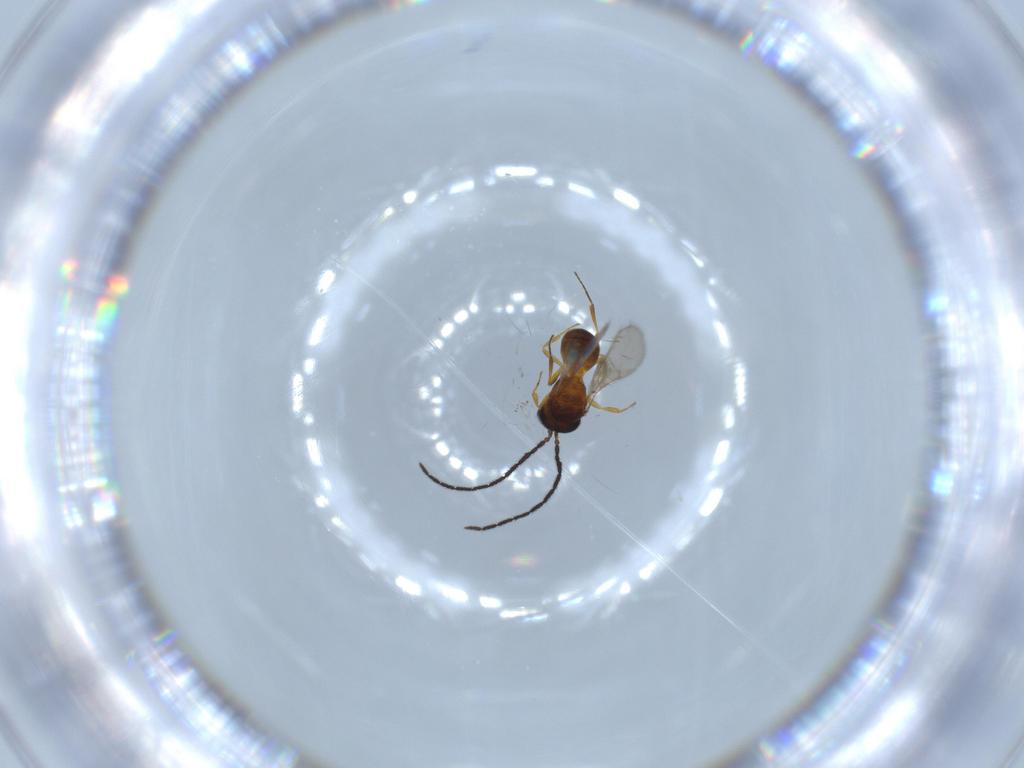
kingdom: Animalia
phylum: Arthropoda
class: Insecta
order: Hymenoptera
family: Scelionidae
